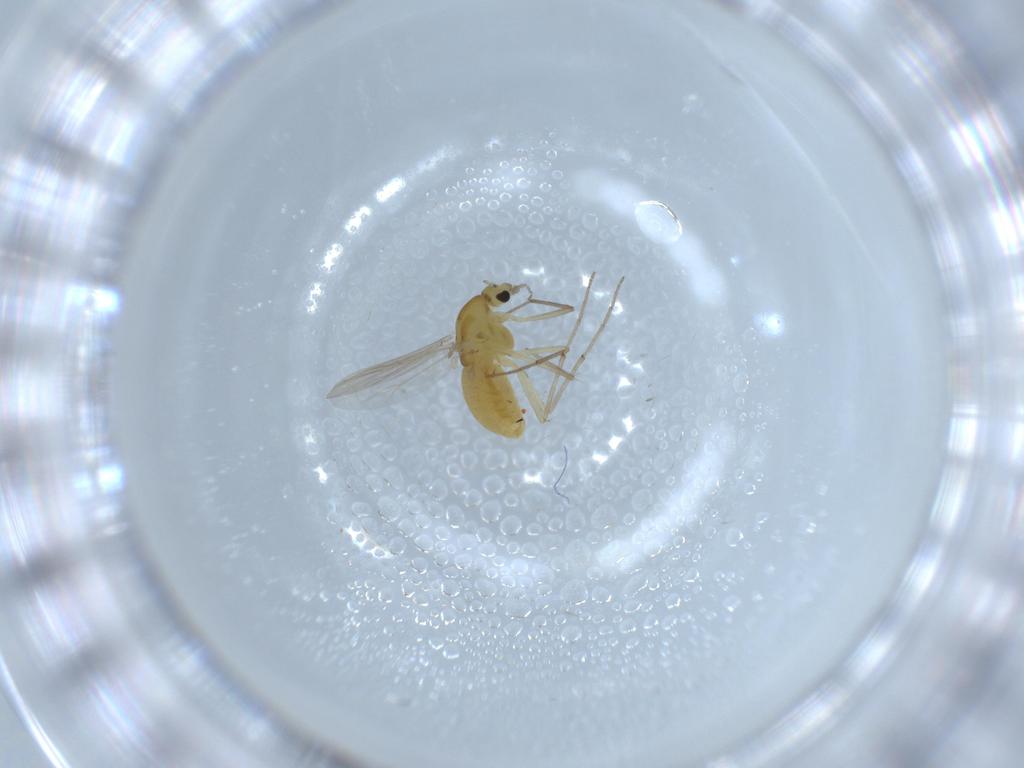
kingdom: Animalia
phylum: Arthropoda
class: Insecta
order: Diptera
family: Chironomidae
